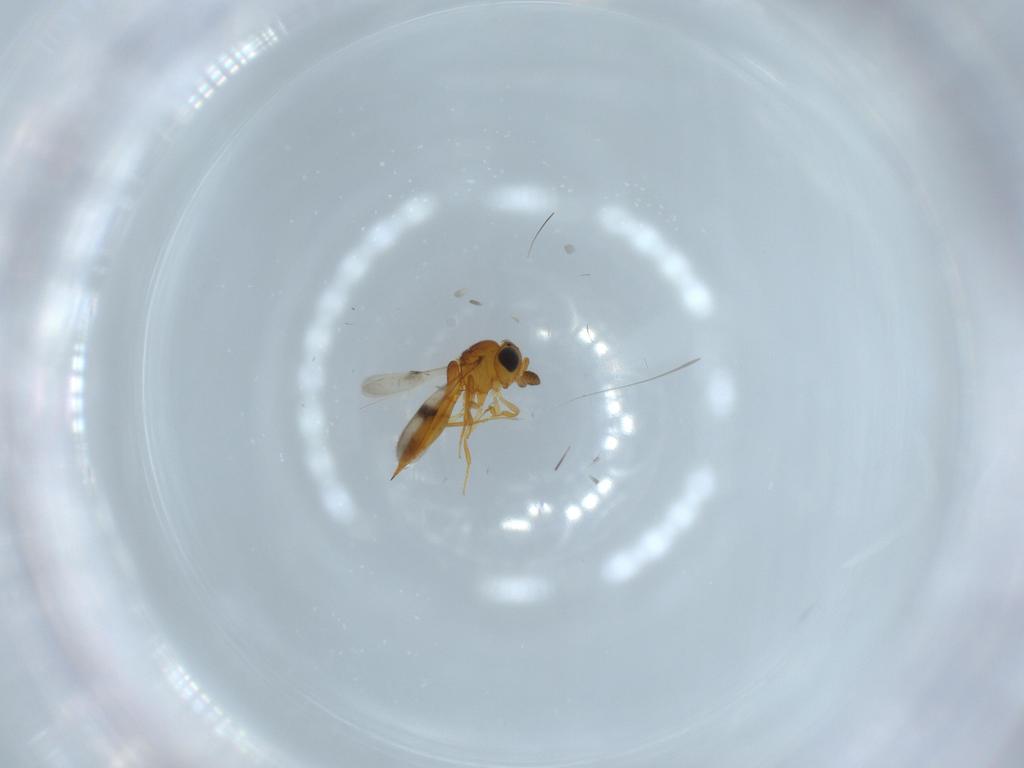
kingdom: Animalia
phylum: Arthropoda
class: Insecta
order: Hymenoptera
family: Scelionidae
